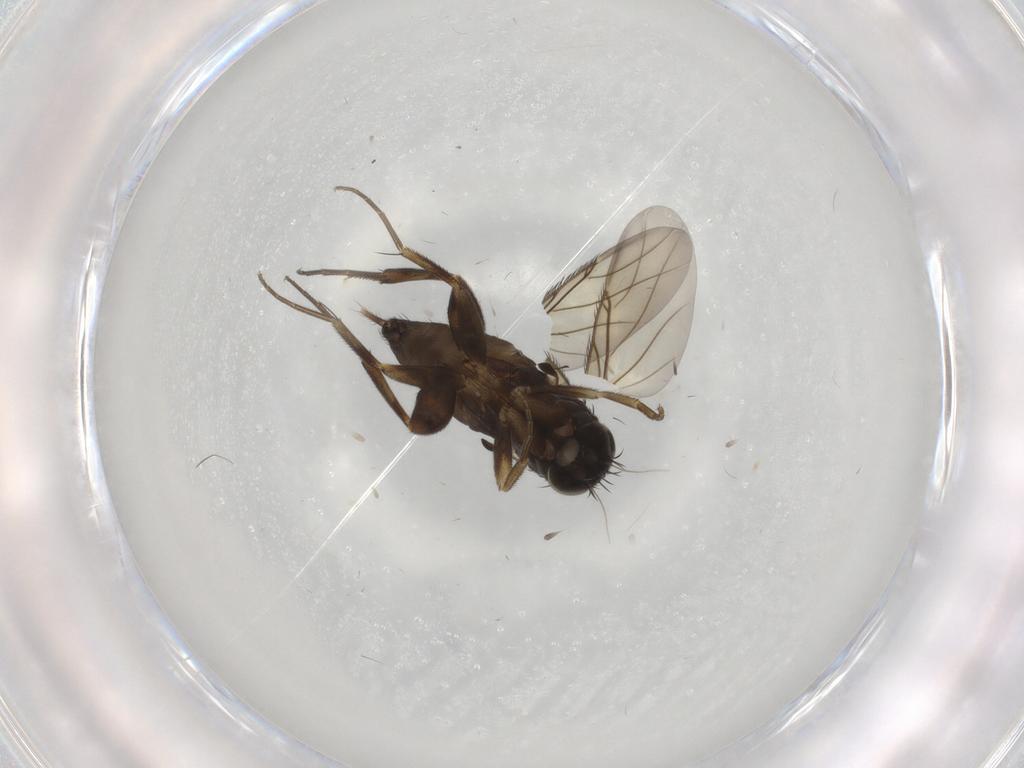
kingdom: Animalia
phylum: Arthropoda
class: Insecta
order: Diptera
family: Phoridae
